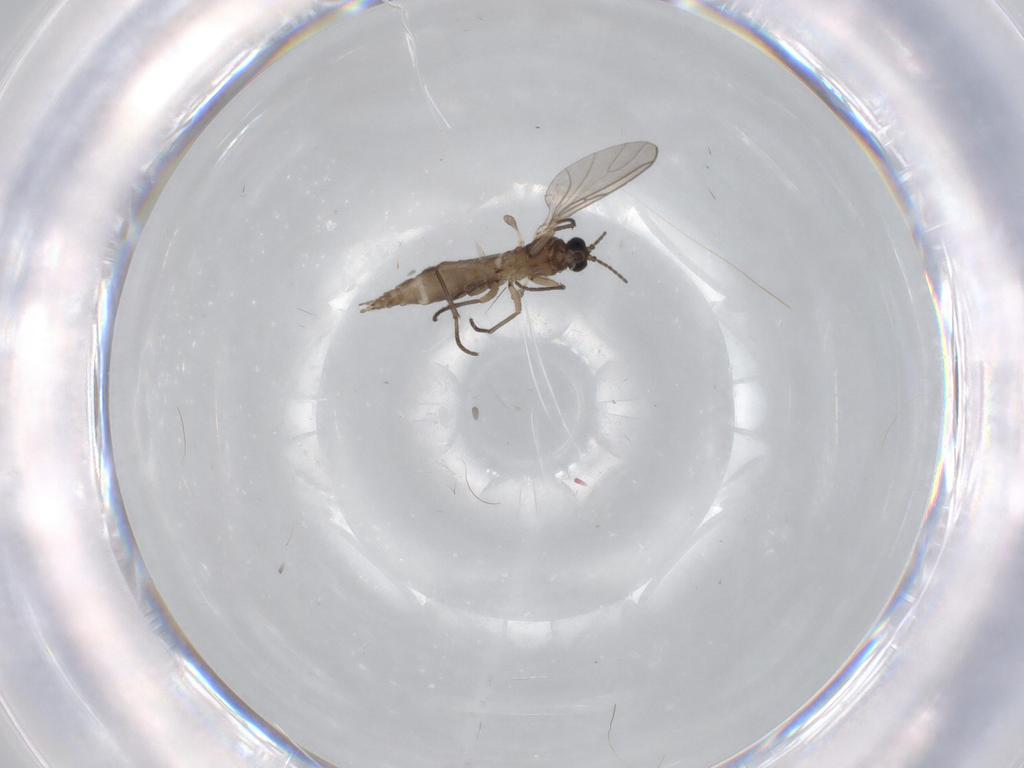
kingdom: Animalia
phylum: Arthropoda
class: Insecta
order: Diptera
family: Sciaridae
